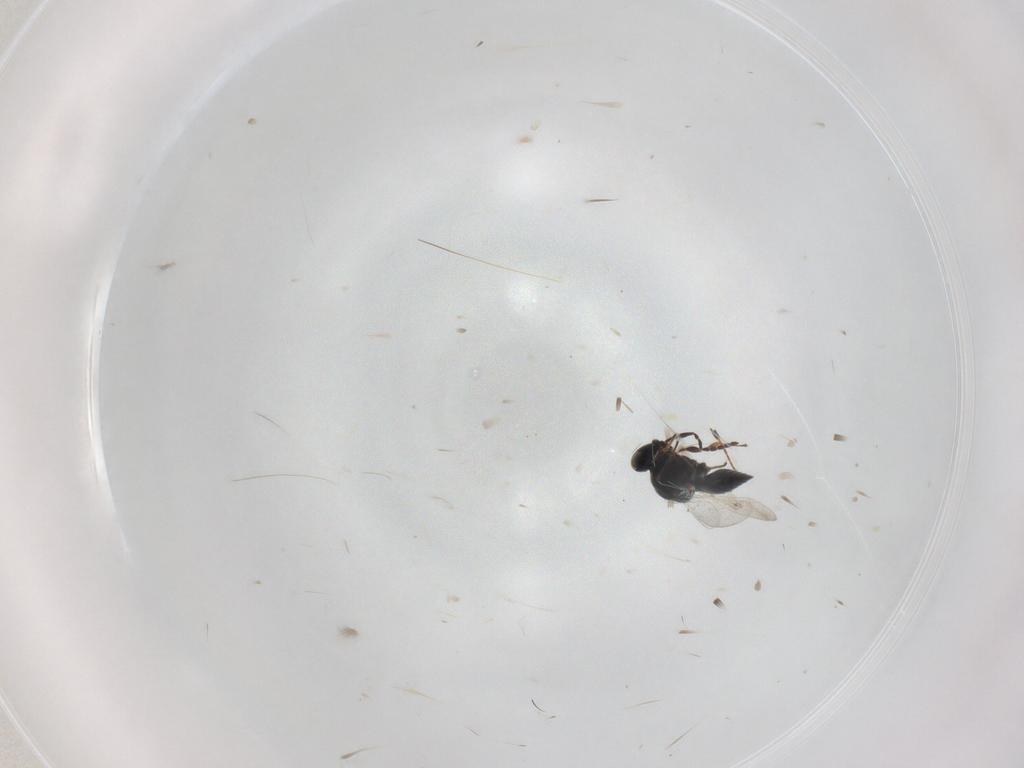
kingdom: Animalia
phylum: Arthropoda
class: Insecta
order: Hymenoptera
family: Platygastridae
